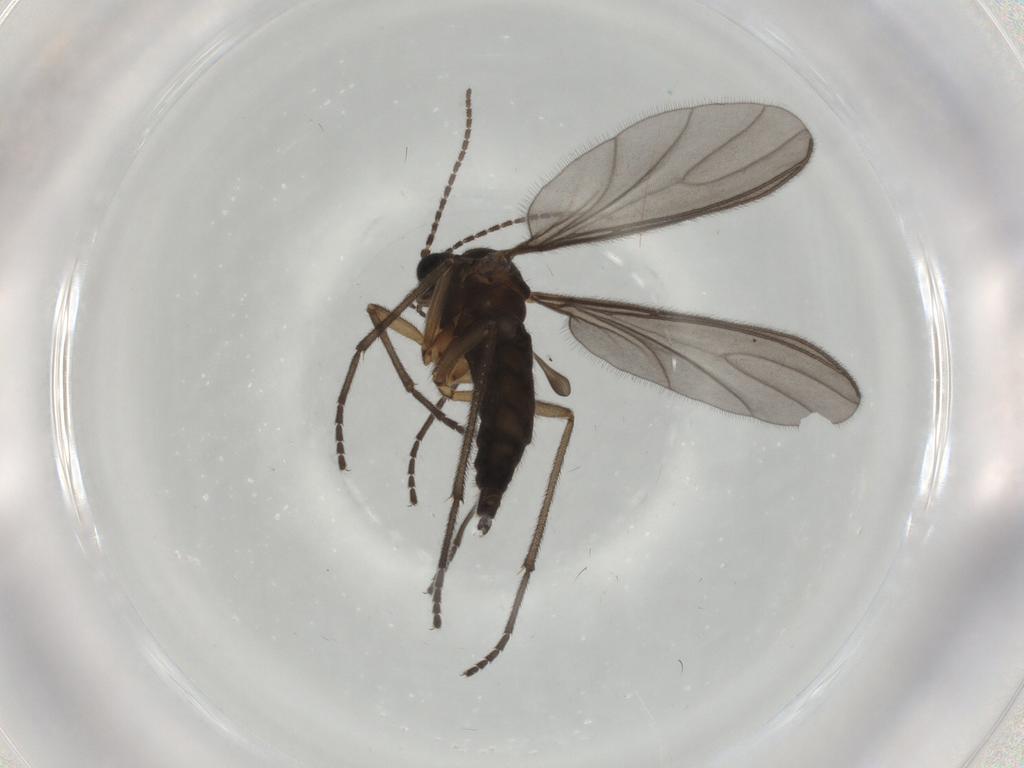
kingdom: Animalia
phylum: Arthropoda
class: Insecta
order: Diptera
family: Sciaridae
